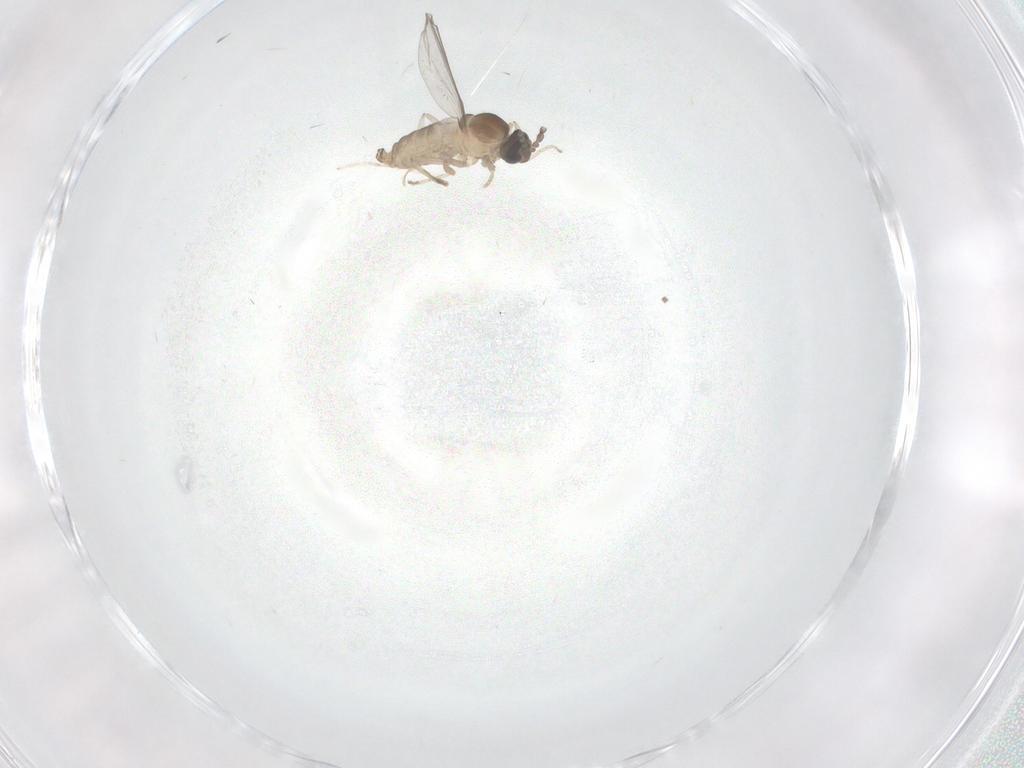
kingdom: Animalia
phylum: Arthropoda
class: Insecta
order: Diptera
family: Cecidomyiidae
